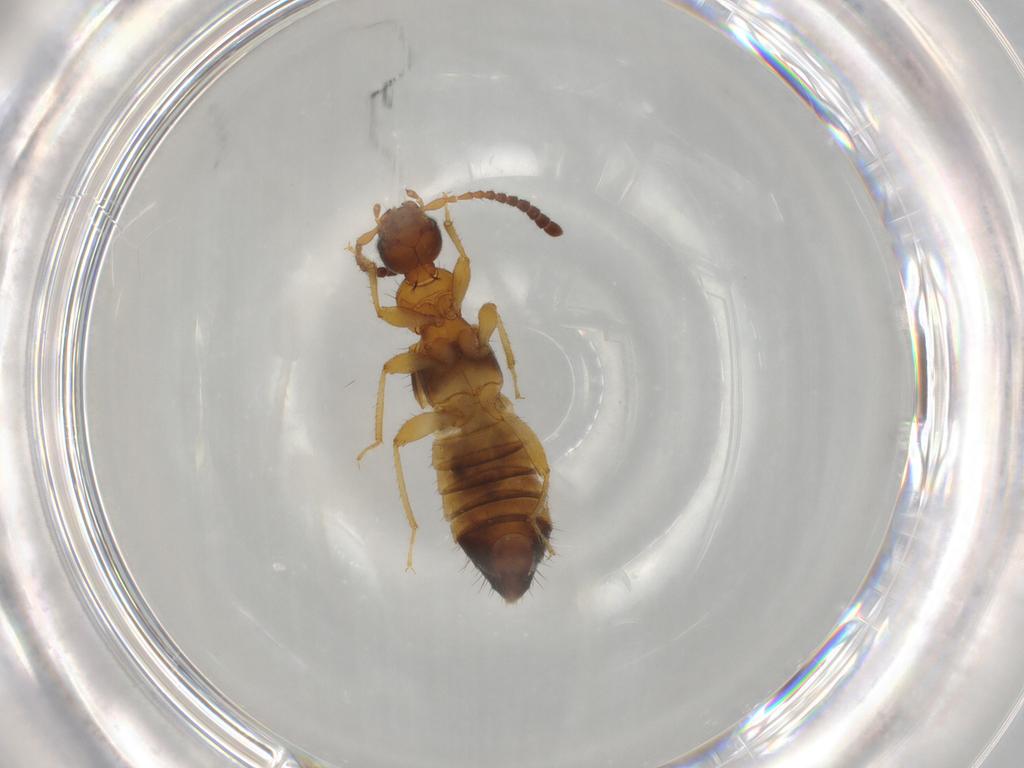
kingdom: Animalia
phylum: Arthropoda
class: Insecta
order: Coleoptera
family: Staphylinidae
